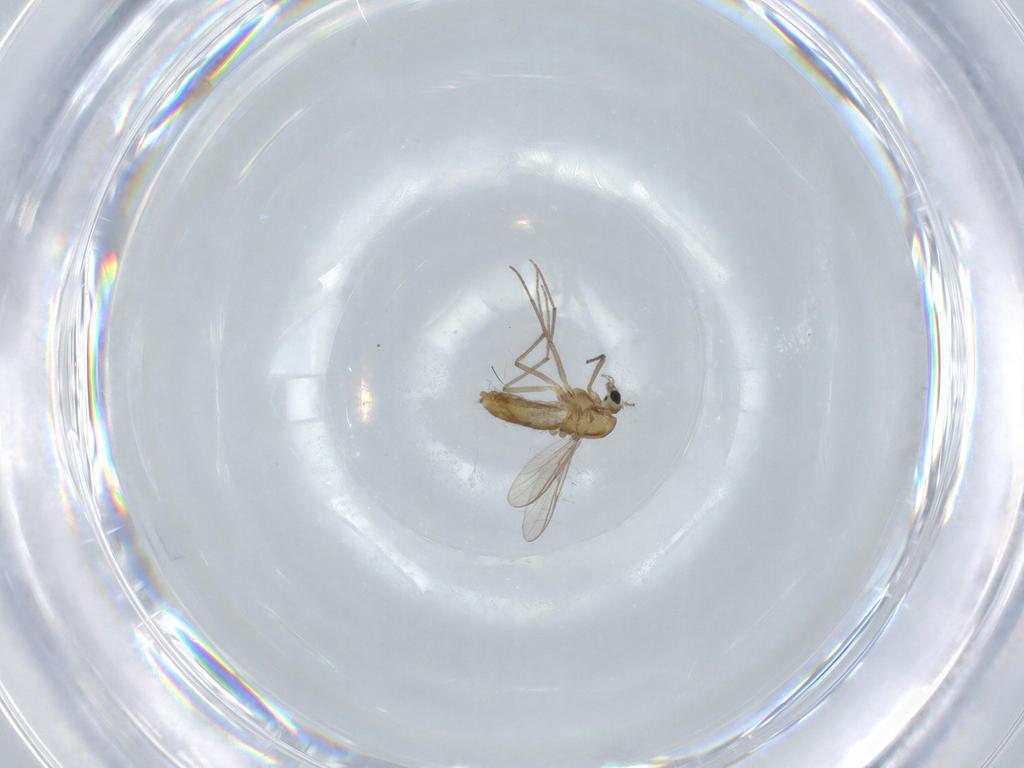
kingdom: Animalia
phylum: Arthropoda
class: Insecta
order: Diptera
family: Chironomidae
